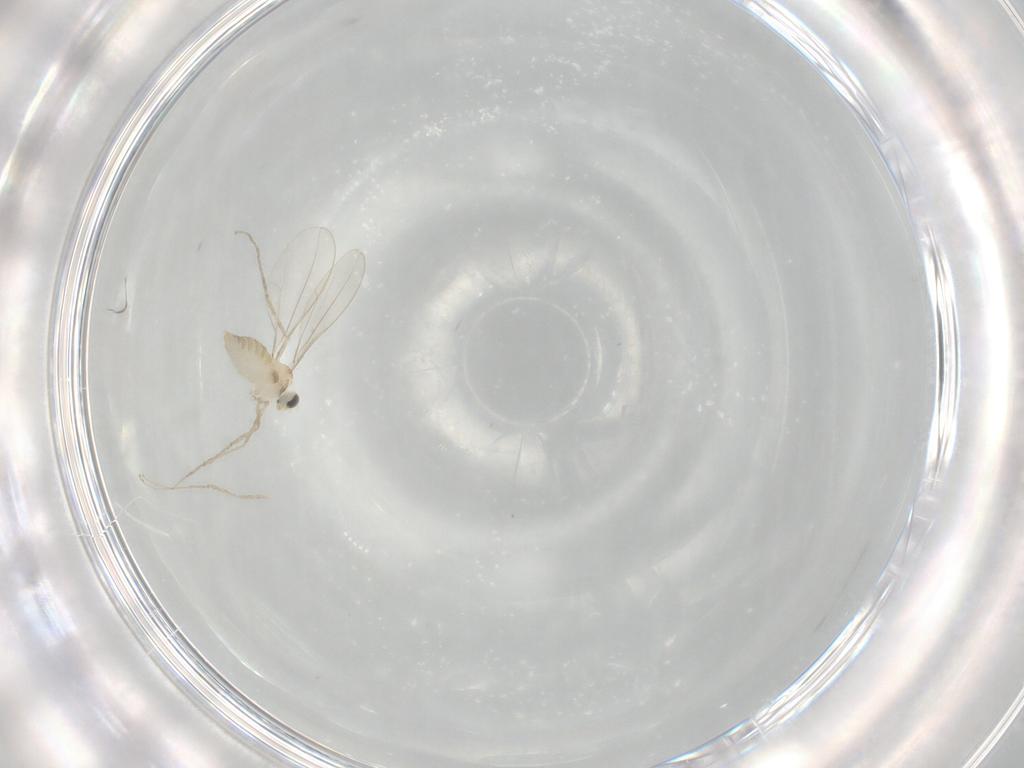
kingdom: Animalia
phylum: Arthropoda
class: Insecta
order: Diptera
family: Cecidomyiidae
